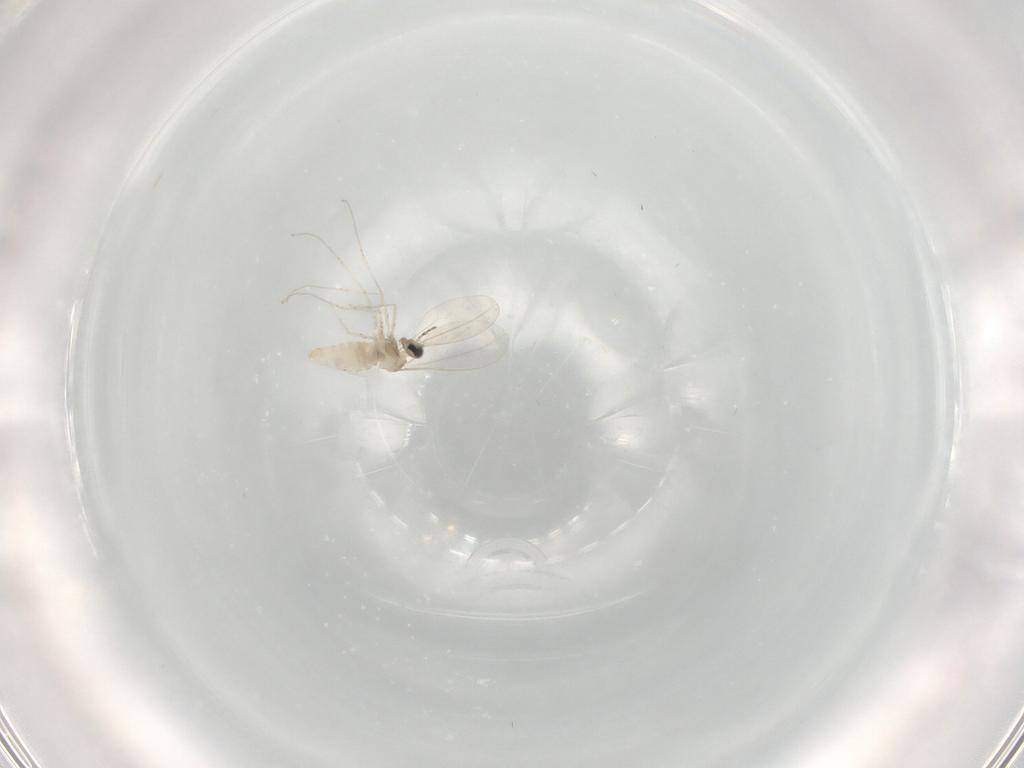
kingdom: Animalia
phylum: Arthropoda
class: Insecta
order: Diptera
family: Cecidomyiidae
